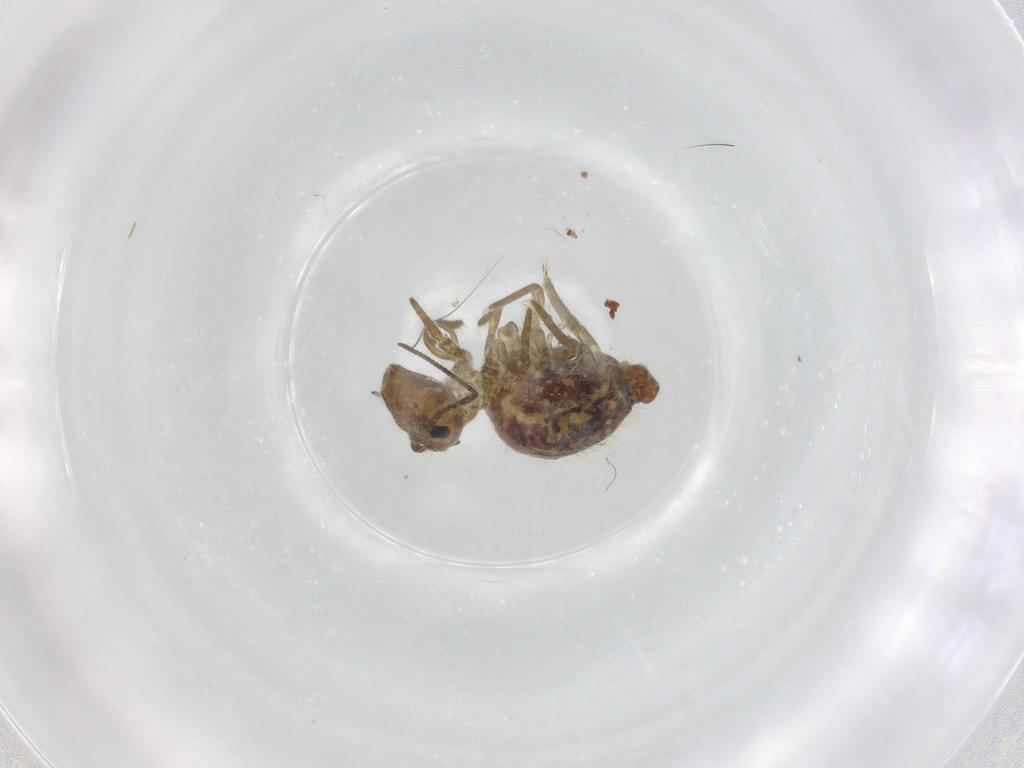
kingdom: Animalia
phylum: Arthropoda
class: Collembola
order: Symphypleona
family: Sminthuridae
